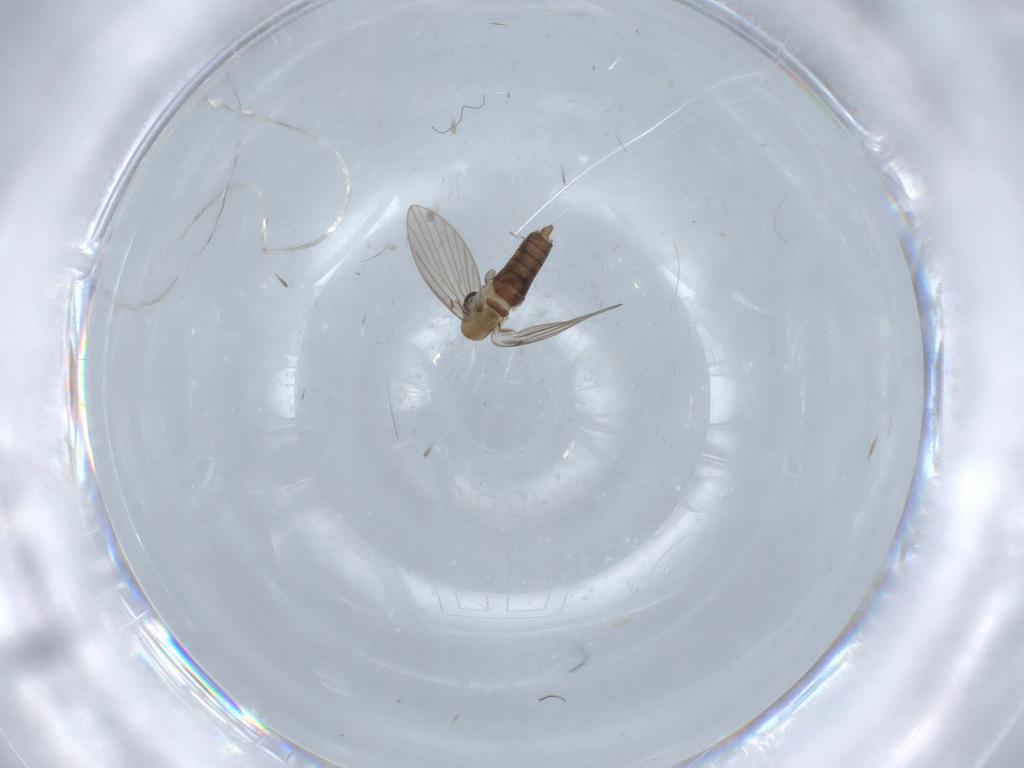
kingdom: Animalia
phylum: Arthropoda
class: Insecta
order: Diptera
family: Psychodidae
